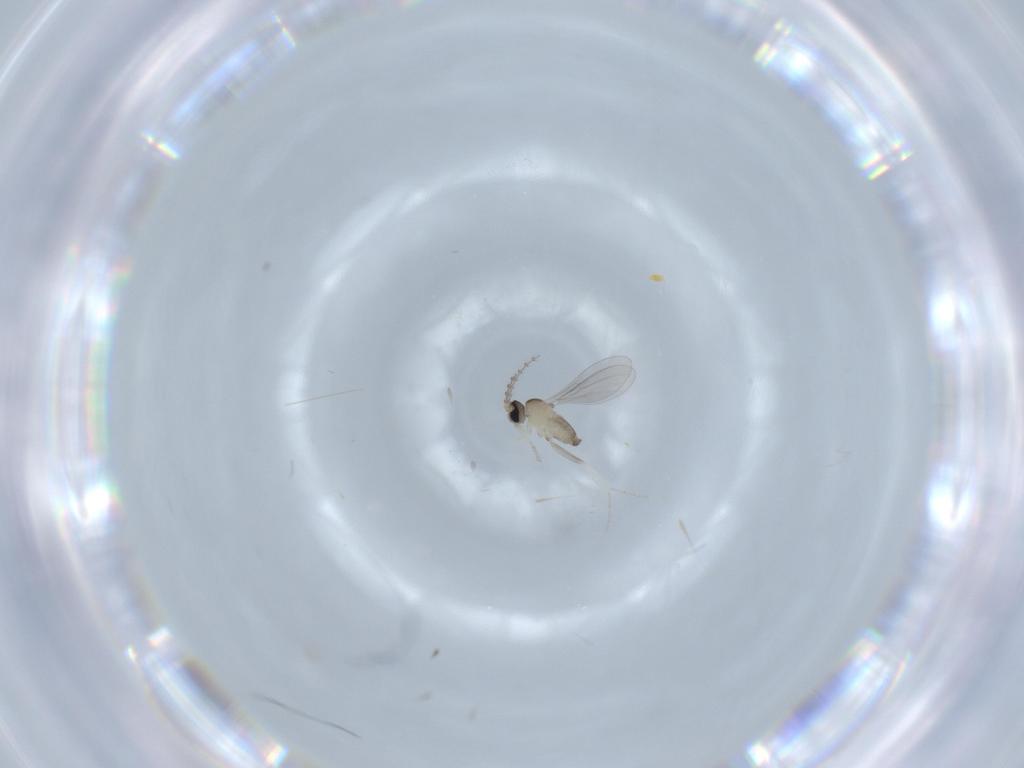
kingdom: Animalia
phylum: Arthropoda
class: Insecta
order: Diptera
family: Cecidomyiidae
